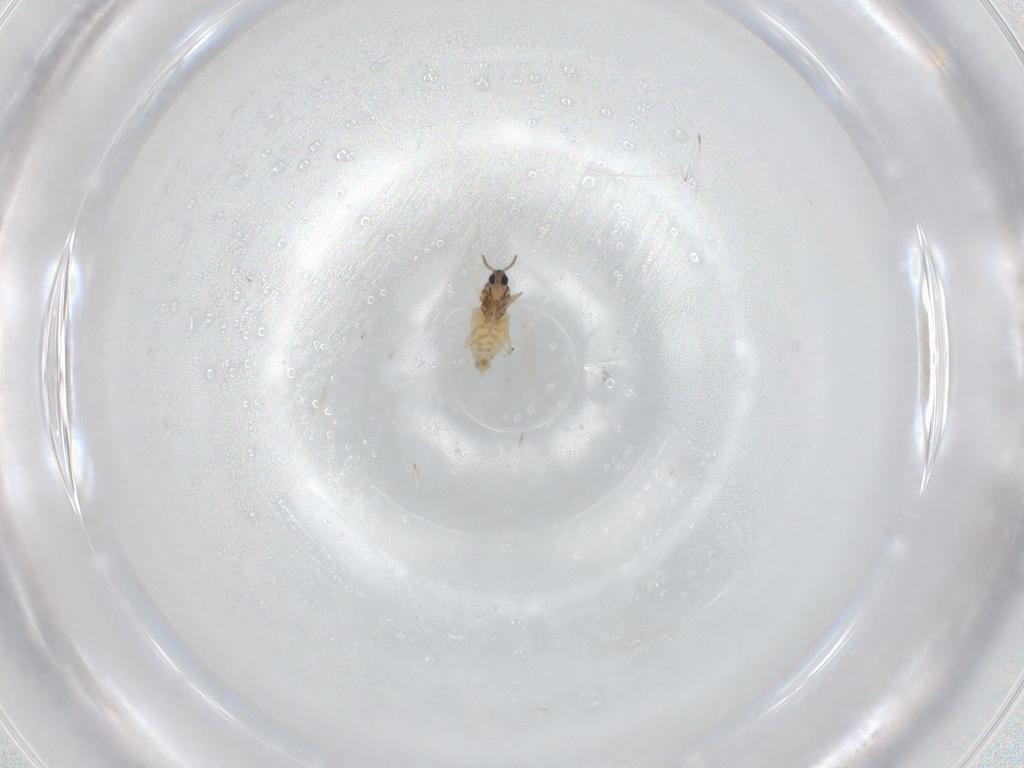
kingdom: Animalia
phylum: Arthropoda
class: Insecta
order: Diptera
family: Cecidomyiidae
